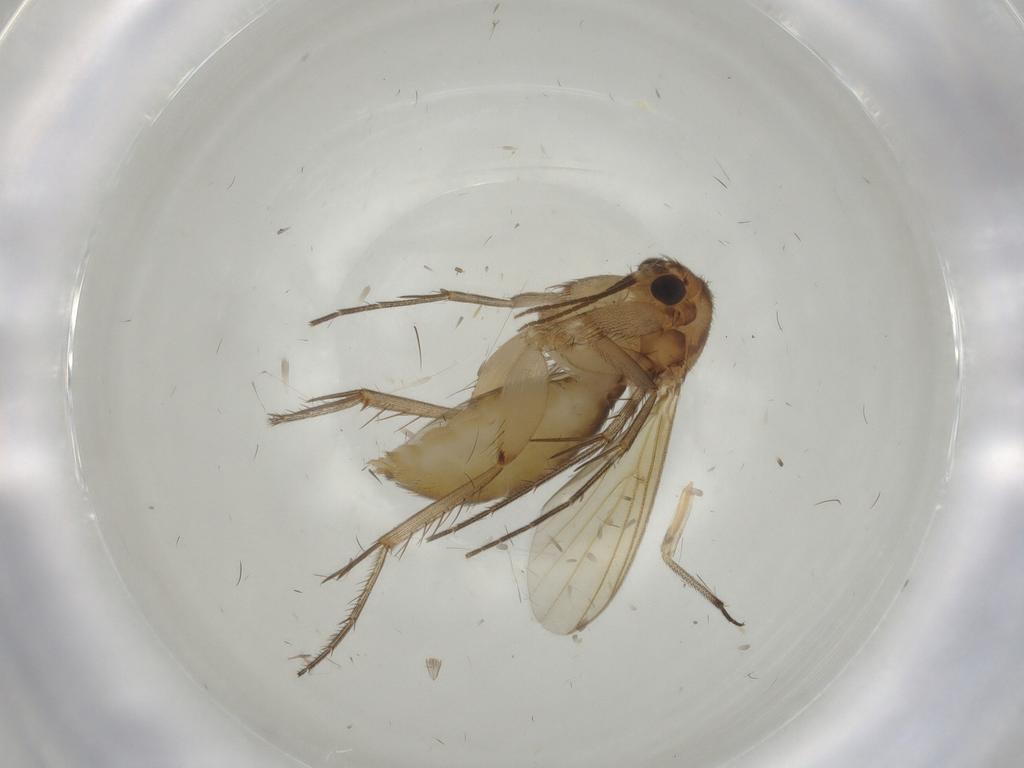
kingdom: Animalia
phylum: Arthropoda
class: Insecta
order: Diptera
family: Mycetophilidae
